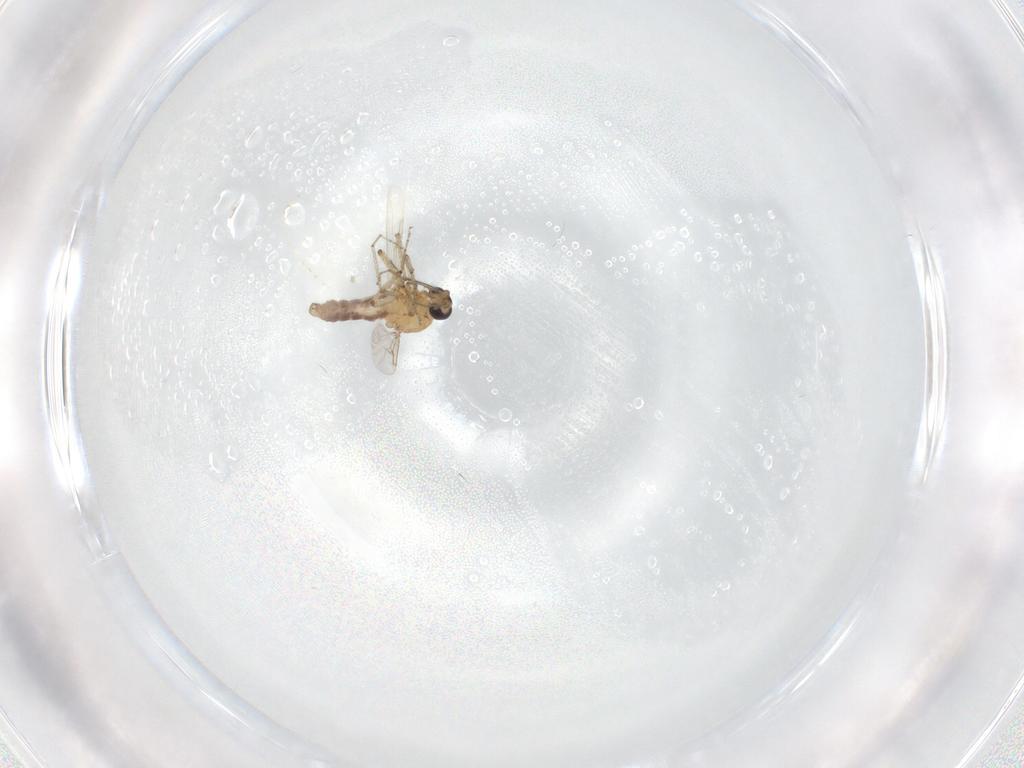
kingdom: Animalia
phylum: Arthropoda
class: Insecta
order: Diptera
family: Ceratopogonidae
